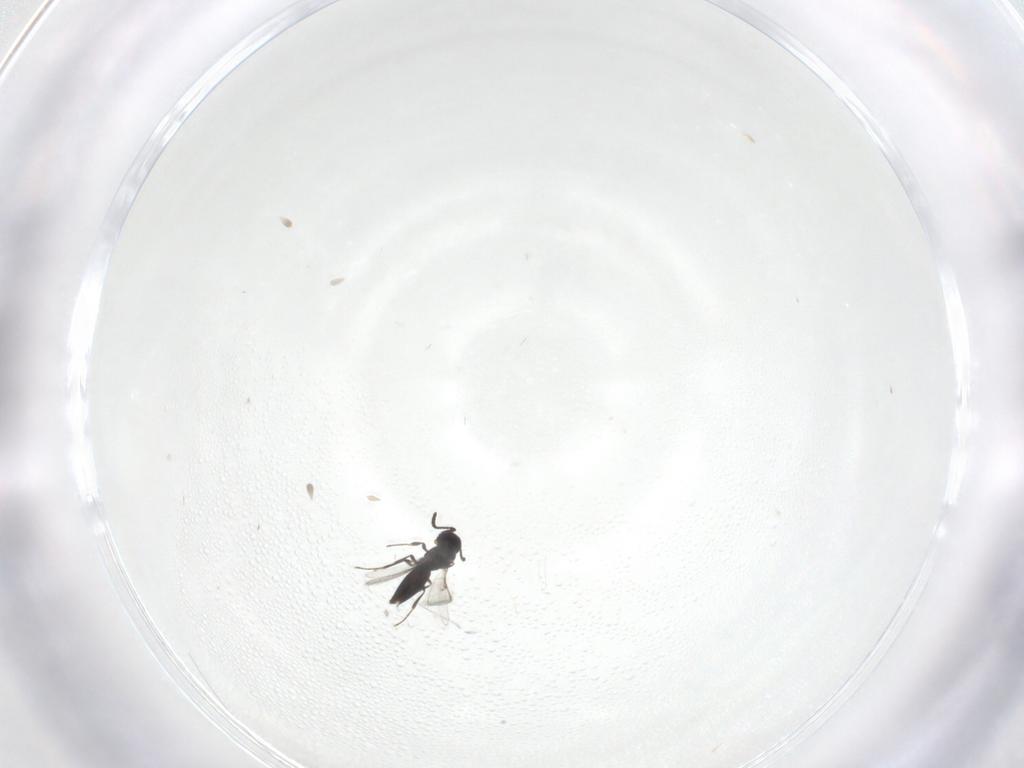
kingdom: Animalia
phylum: Arthropoda
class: Insecta
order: Hymenoptera
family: Scelionidae
